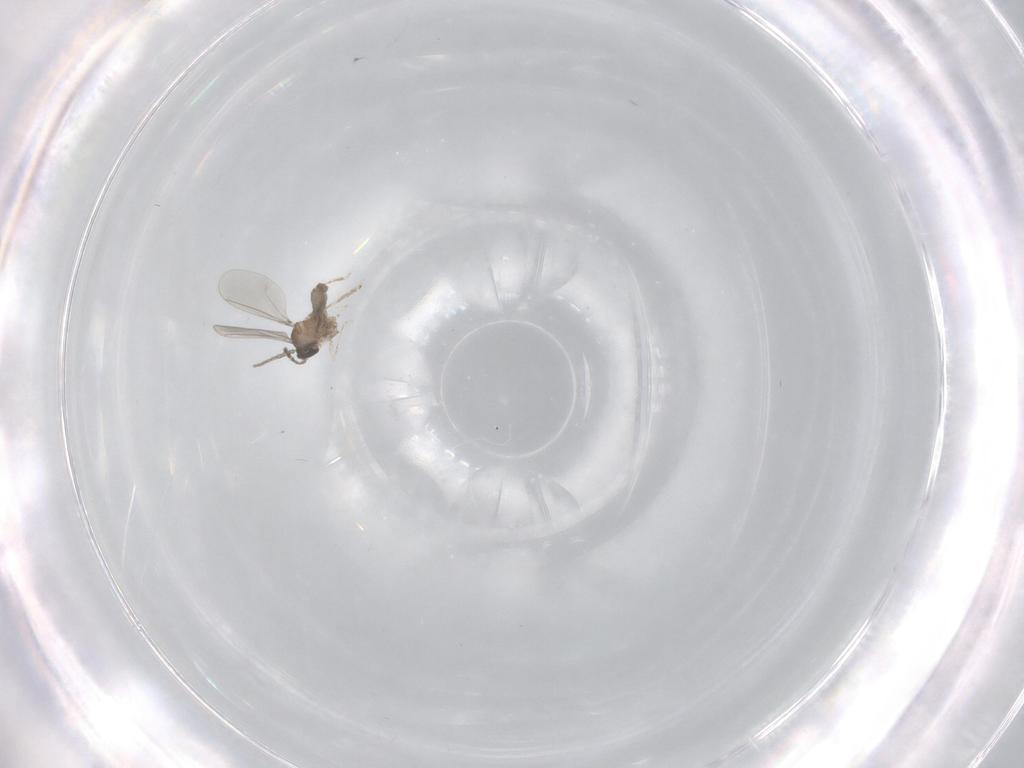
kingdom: Animalia
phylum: Arthropoda
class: Insecta
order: Diptera
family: Cecidomyiidae
